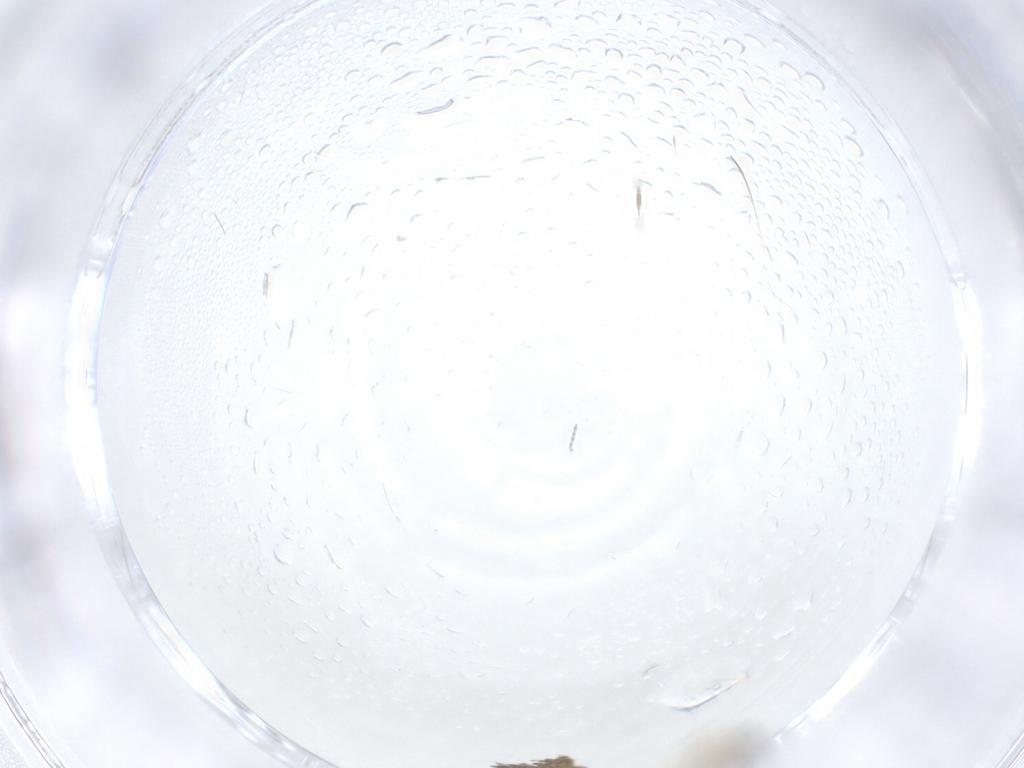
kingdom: Animalia
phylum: Arthropoda
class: Insecta
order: Diptera
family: Cecidomyiidae
